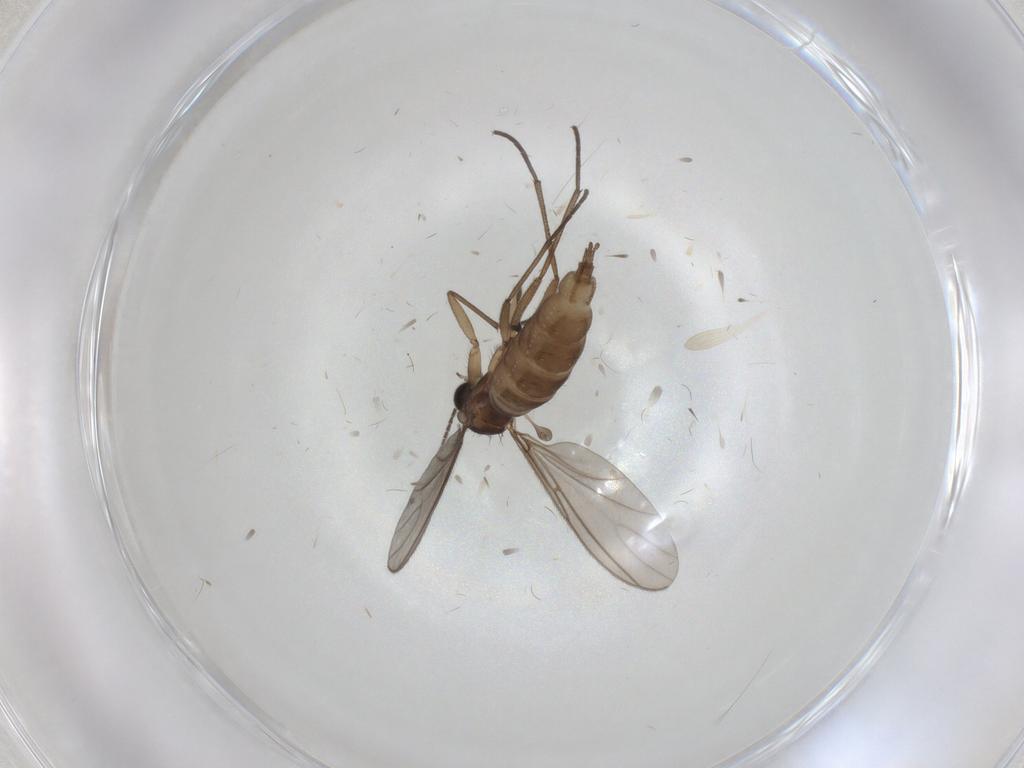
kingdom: Animalia
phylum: Arthropoda
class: Insecta
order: Diptera
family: Sciaridae
